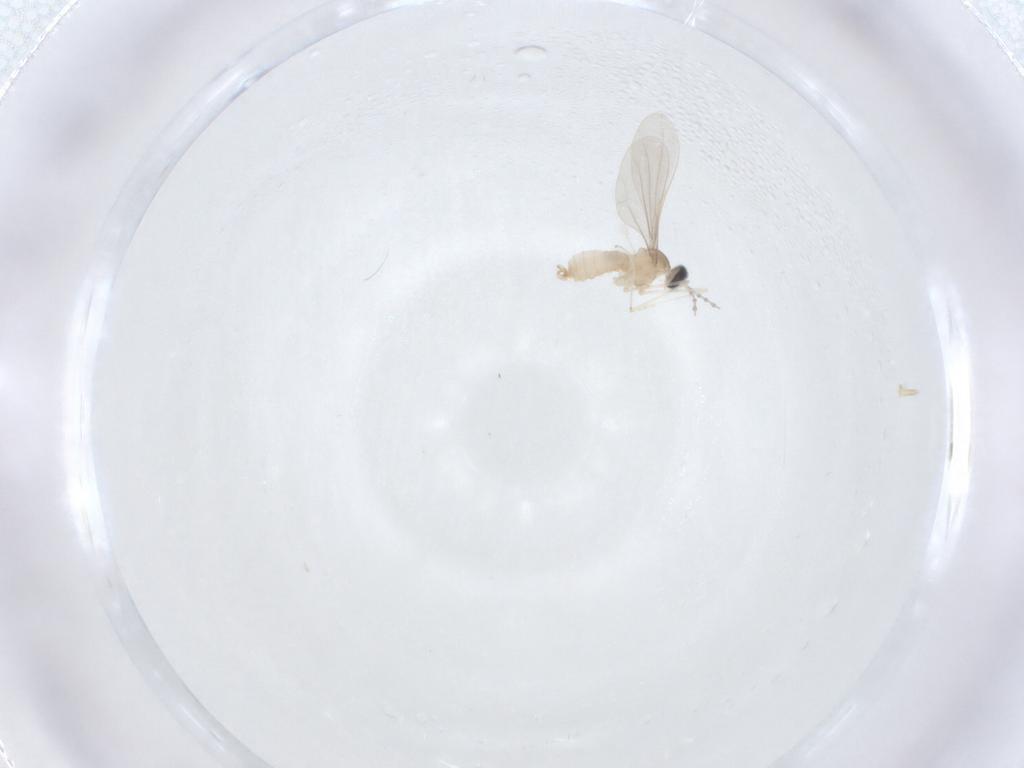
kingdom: Animalia
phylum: Arthropoda
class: Insecta
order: Diptera
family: Cecidomyiidae
